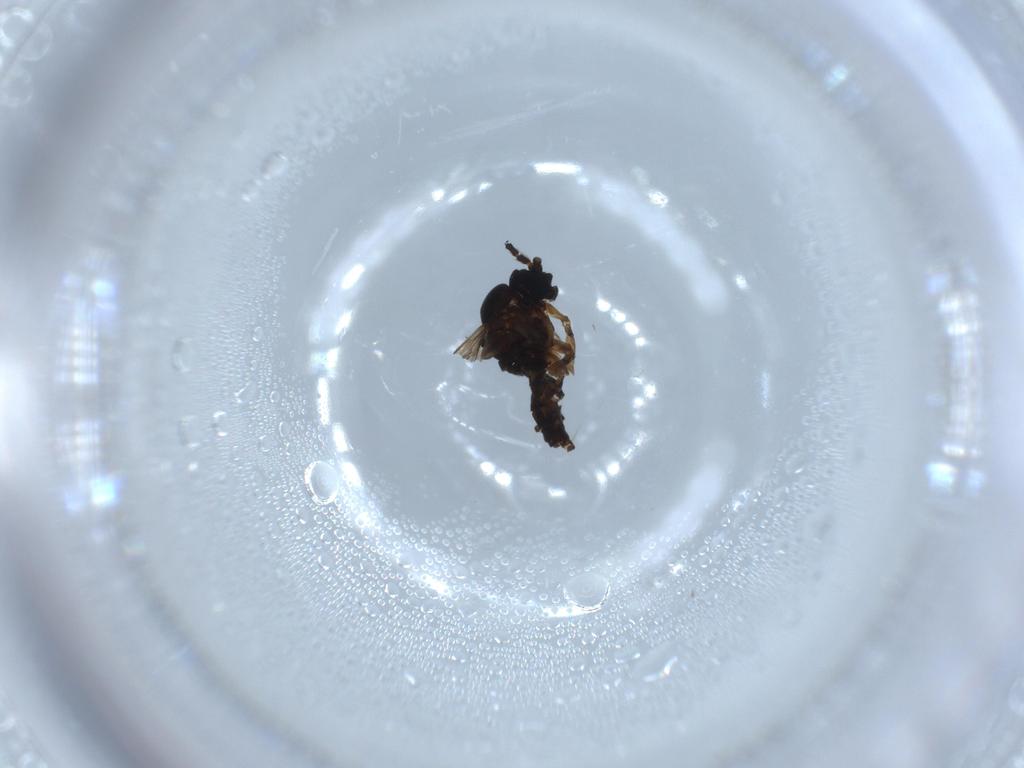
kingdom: Animalia
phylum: Arthropoda
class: Insecta
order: Diptera
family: Sciaridae
